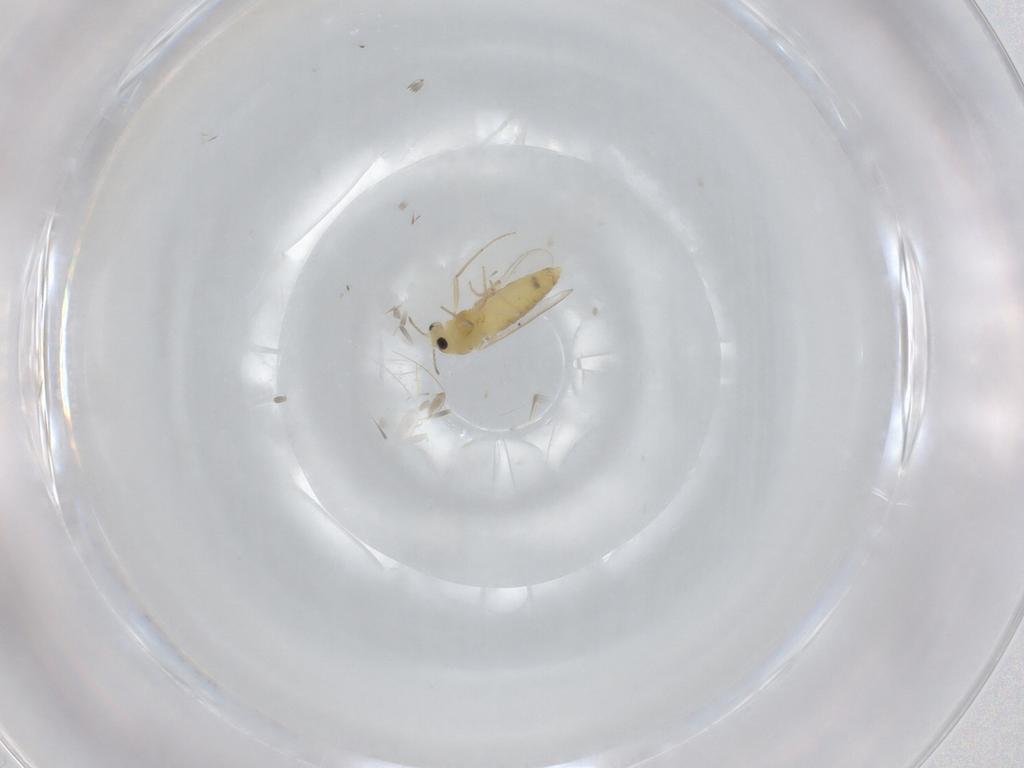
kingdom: Animalia
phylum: Arthropoda
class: Insecta
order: Diptera
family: Chironomidae
